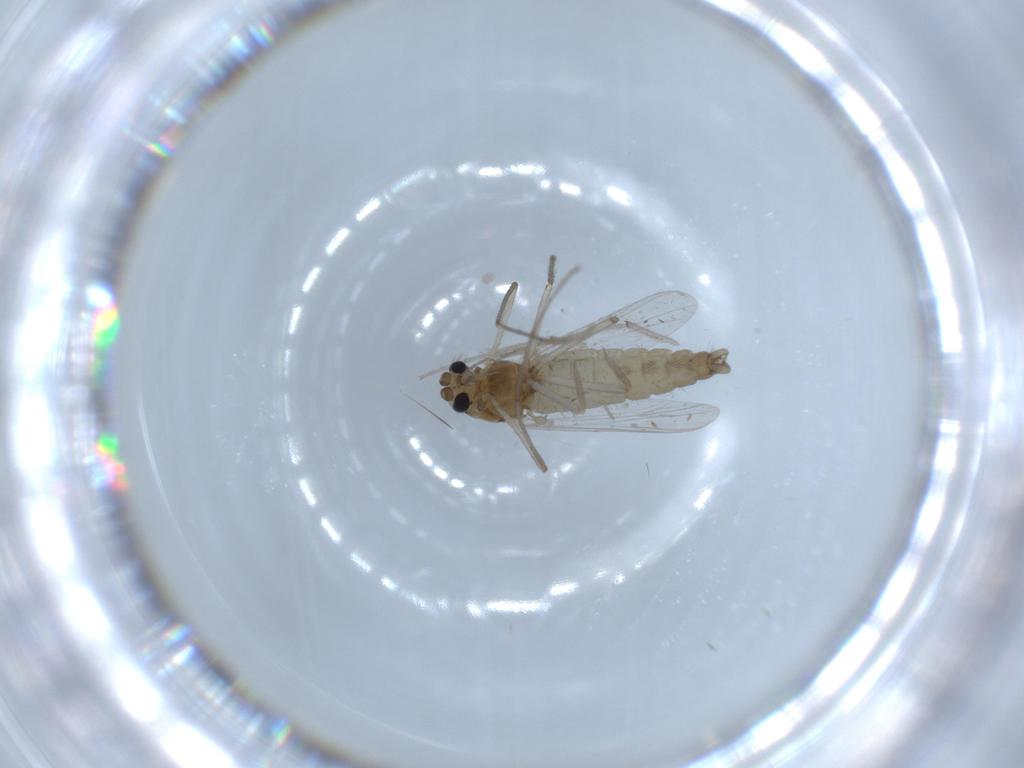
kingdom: Animalia
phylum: Arthropoda
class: Insecta
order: Diptera
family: Chironomidae
